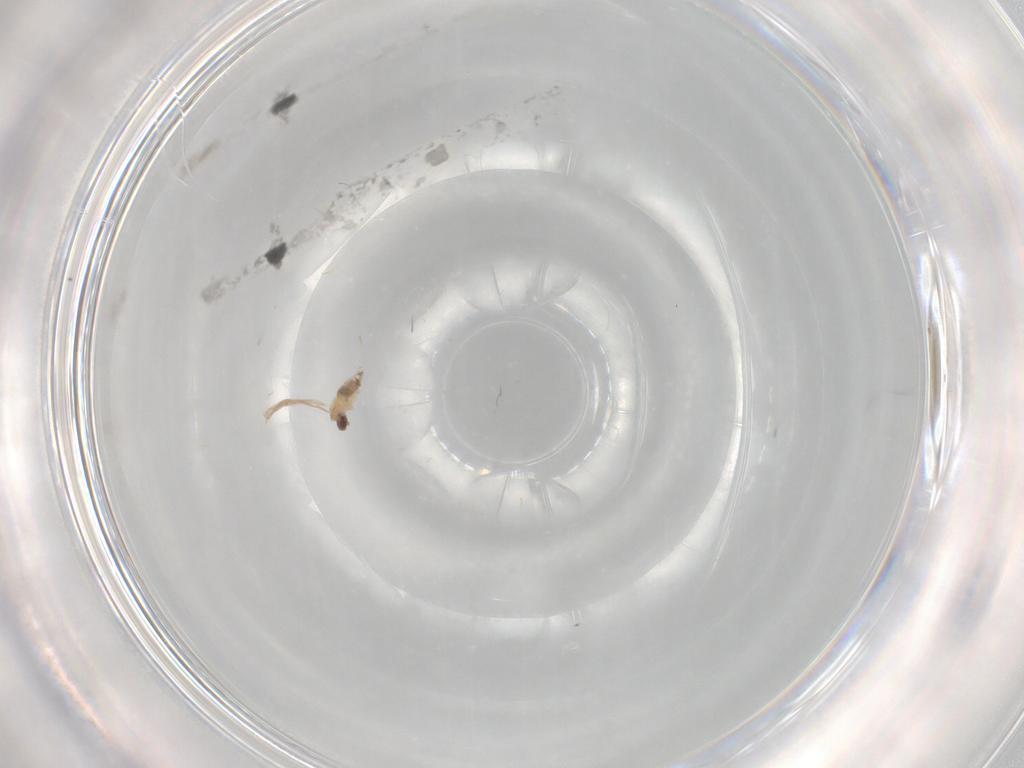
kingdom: Animalia
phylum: Arthropoda
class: Insecta
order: Diptera
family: Cecidomyiidae
